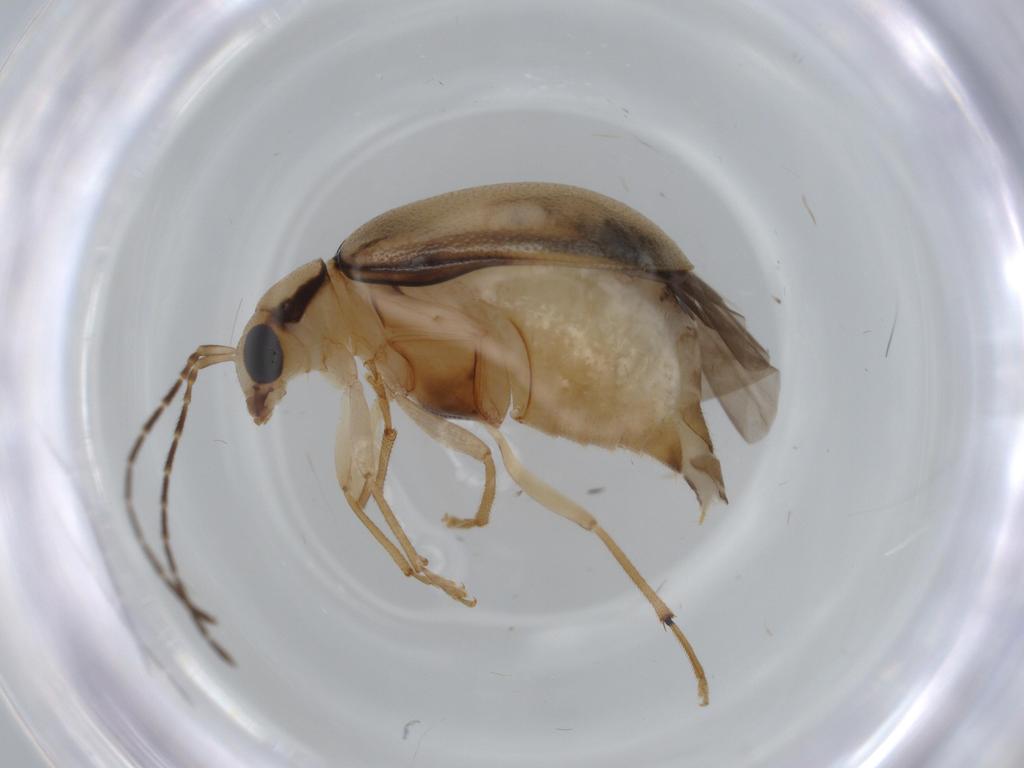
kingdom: Animalia
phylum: Arthropoda
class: Insecta
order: Coleoptera
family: Chrysomelidae
